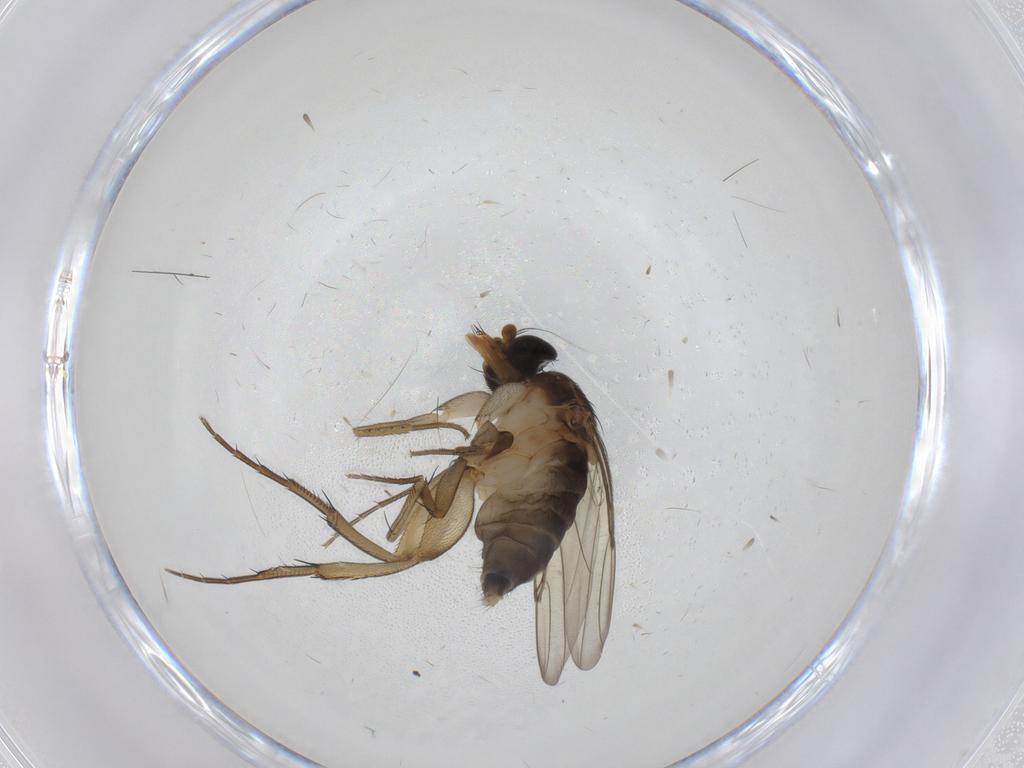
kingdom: Animalia
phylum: Arthropoda
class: Insecta
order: Diptera
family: Phoridae
